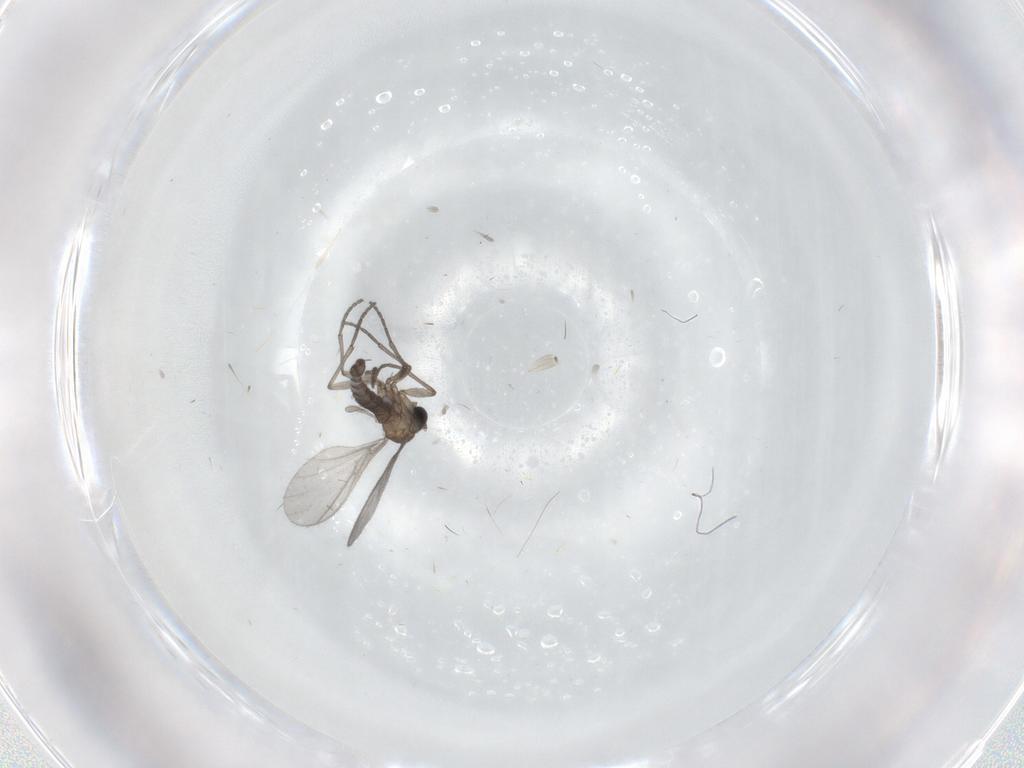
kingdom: Animalia
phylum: Arthropoda
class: Insecta
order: Diptera
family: Sciaridae
